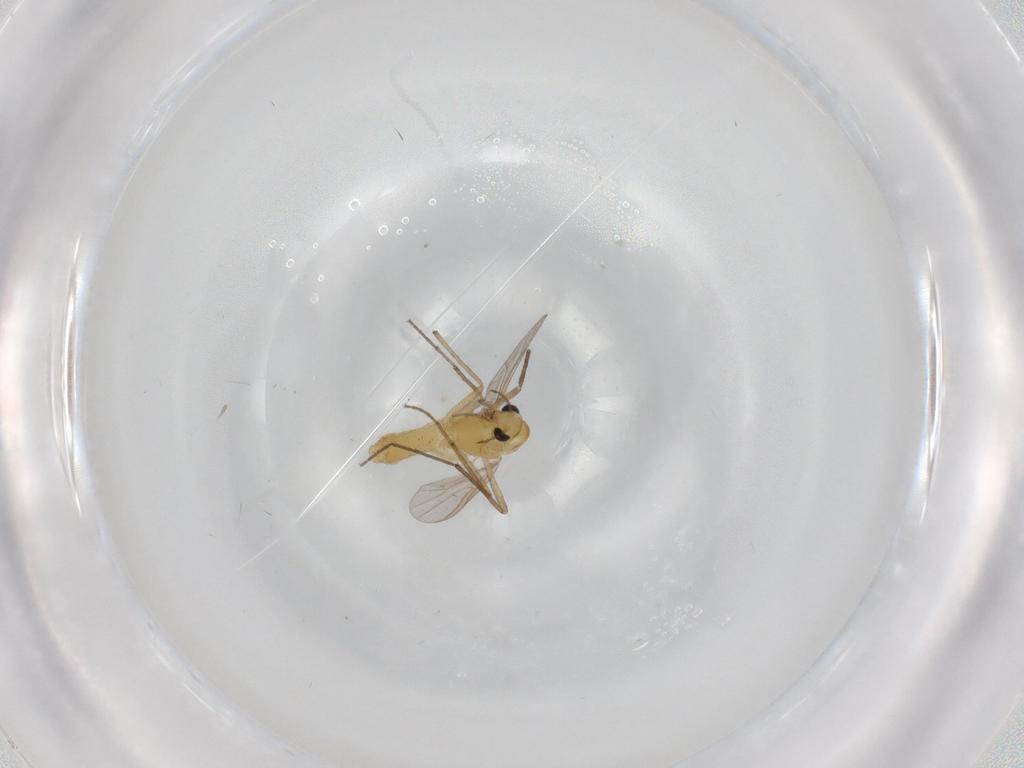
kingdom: Animalia
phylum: Arthropoda
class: Insecta
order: Diptera
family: Chironomidae
